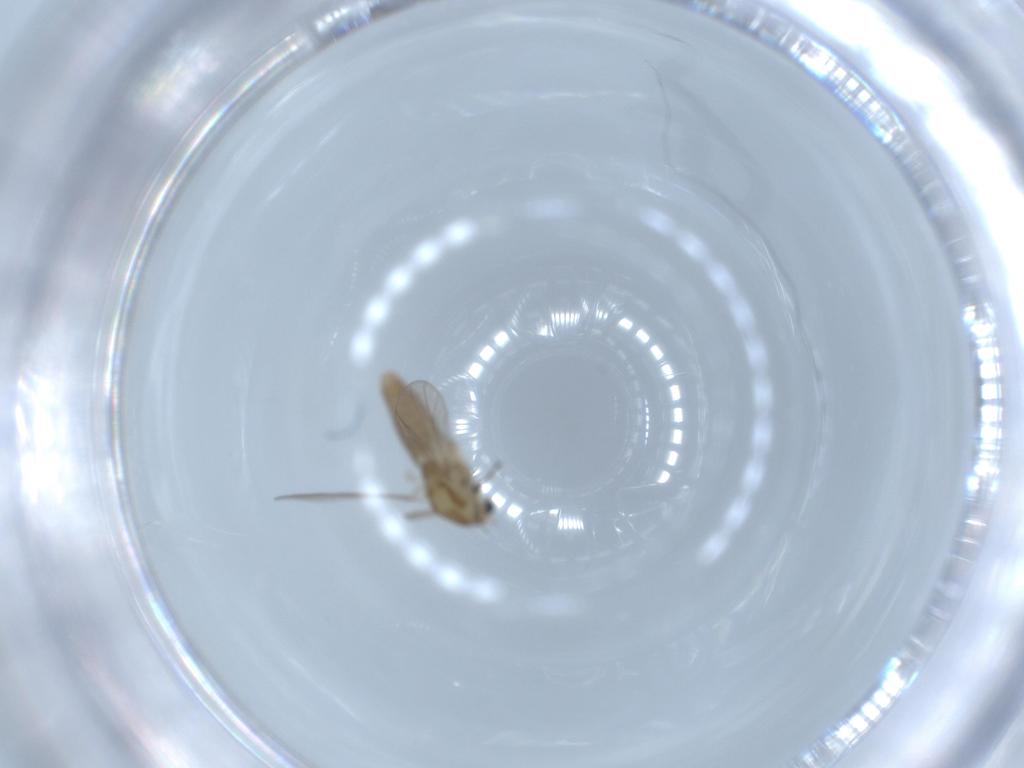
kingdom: Animalia
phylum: Arthropoda
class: Insecta
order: Diptera
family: Chironomidae
